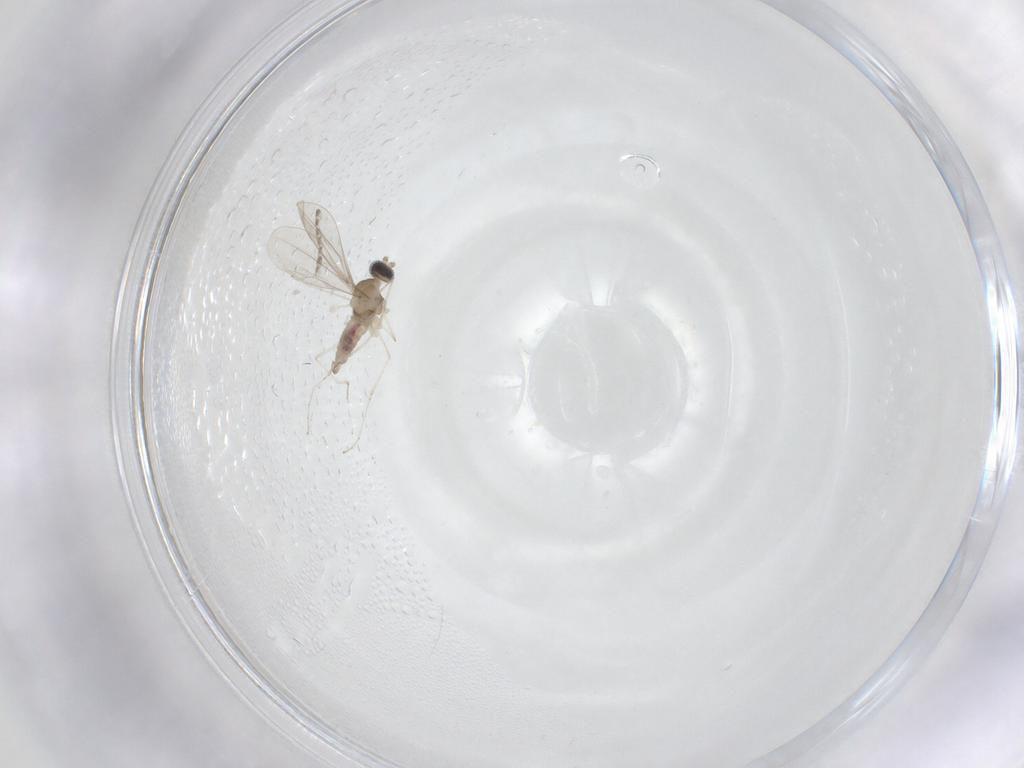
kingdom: Animalia
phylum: Arthropoda
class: Insecta
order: Diptera
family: Cecidomyiidae
